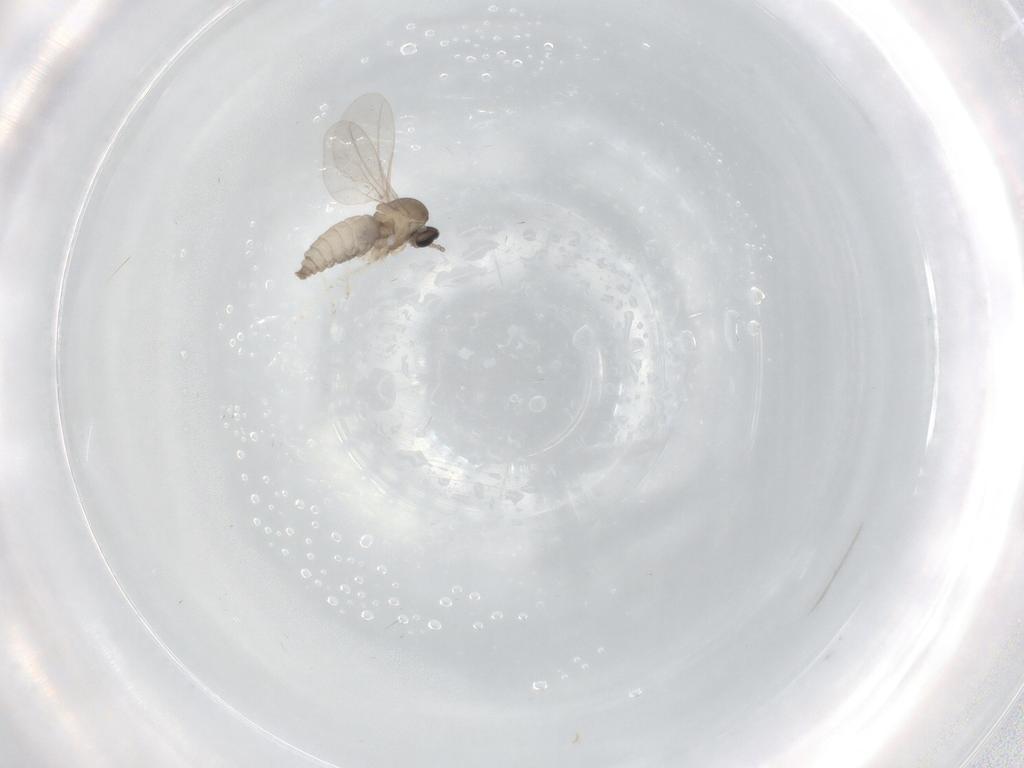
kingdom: Animalia
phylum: Arthropoda
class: Insecta
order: Diptera
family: Cecidomyiidae
